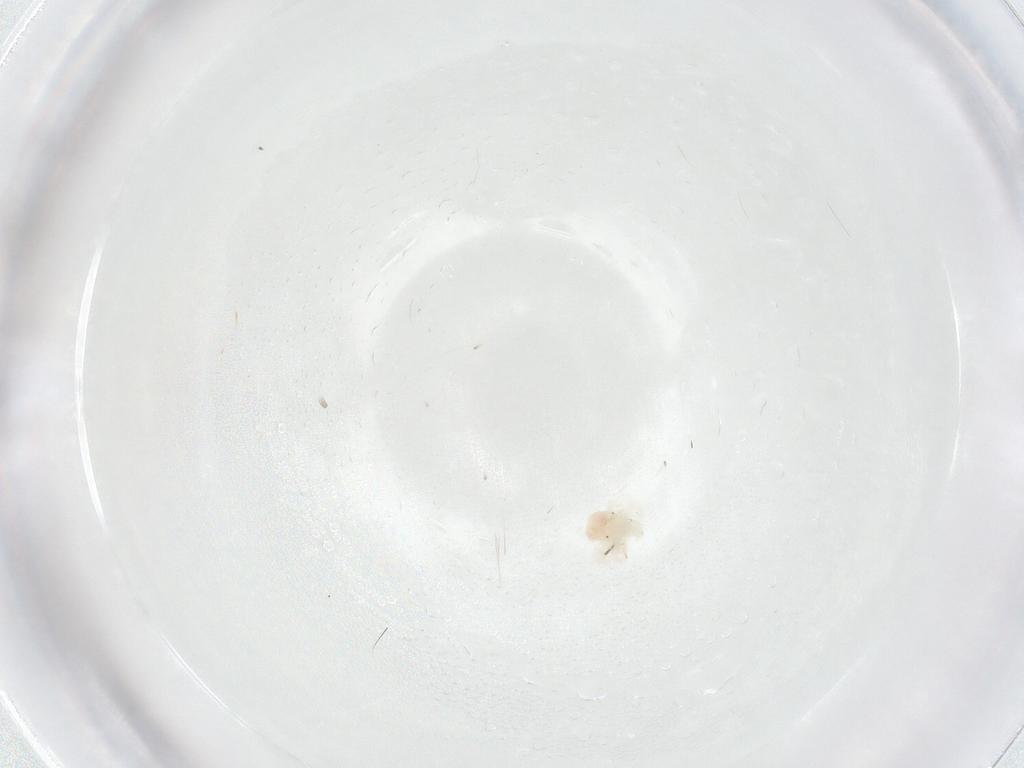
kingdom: Animalia
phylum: Arthropoda
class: Arachnida
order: Trombidiformes
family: Anystidae
